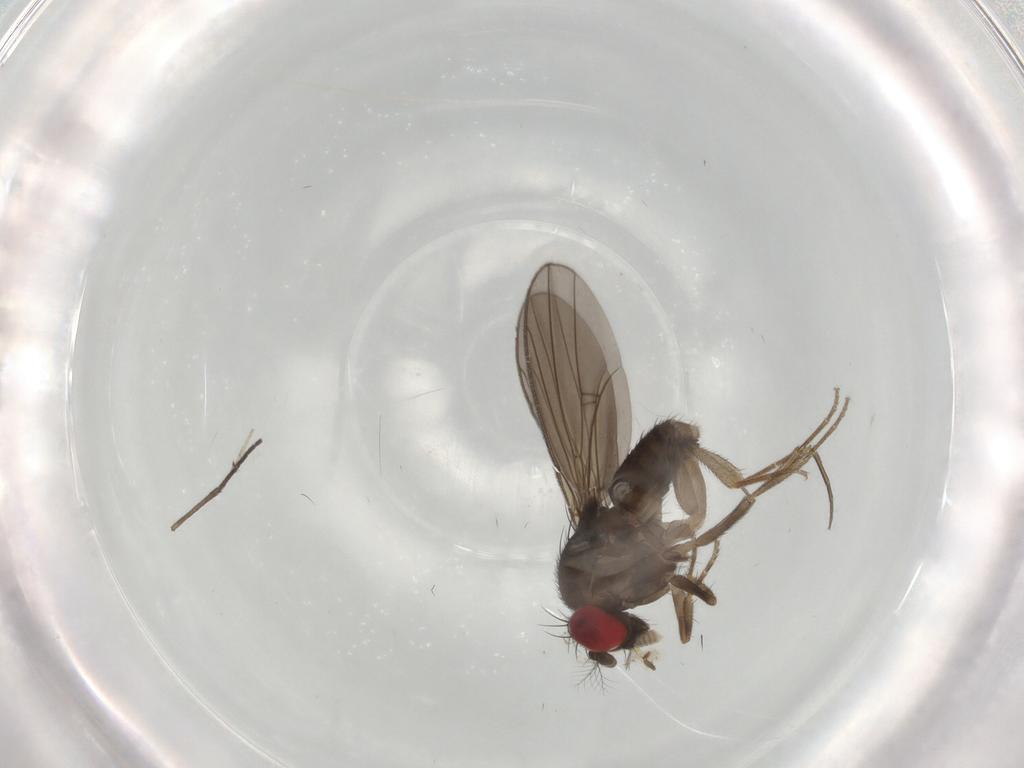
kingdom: Animalia
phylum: Arthropoda
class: Insecta
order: Diptera
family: Drosophilidae
